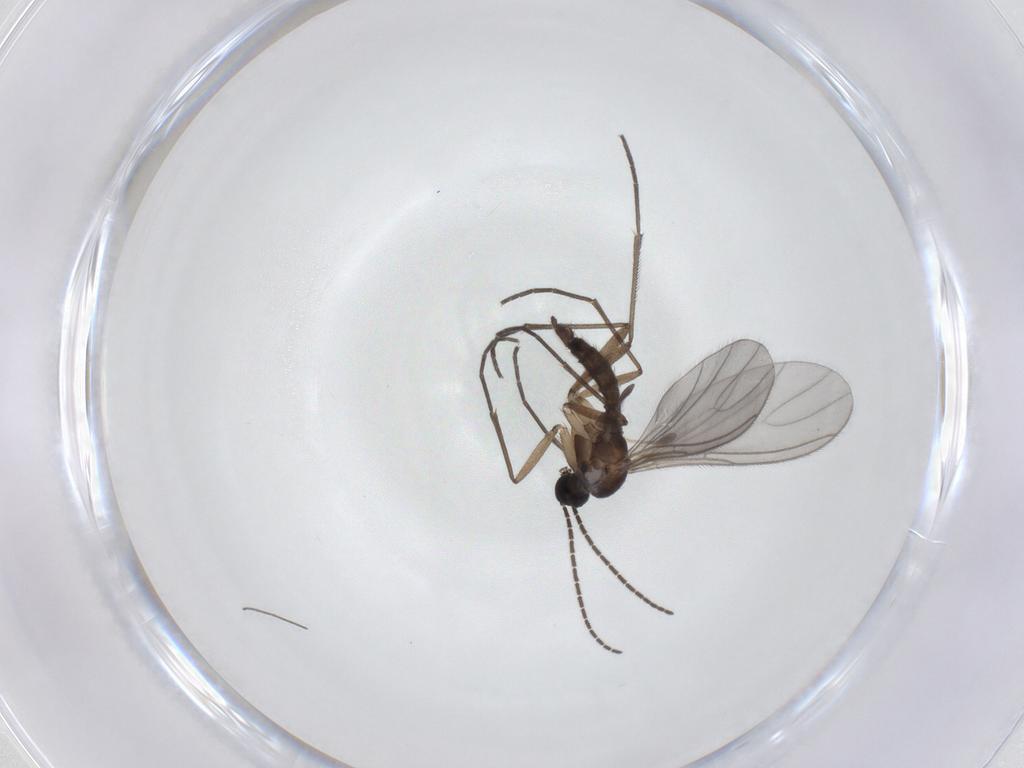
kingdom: Animalia
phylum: Arthropoda
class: Insecta
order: Diptera
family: Sciaridae
